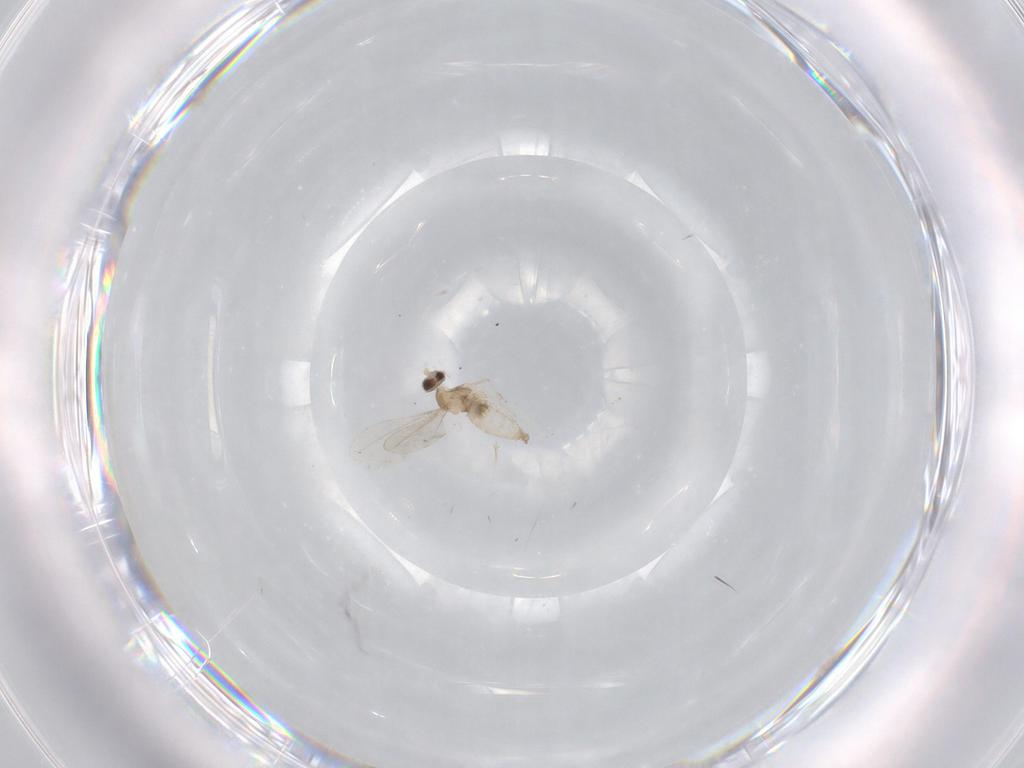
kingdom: Animalia
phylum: Arthropoda
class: Insecta
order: Diptera
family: Cecidomyiidae
